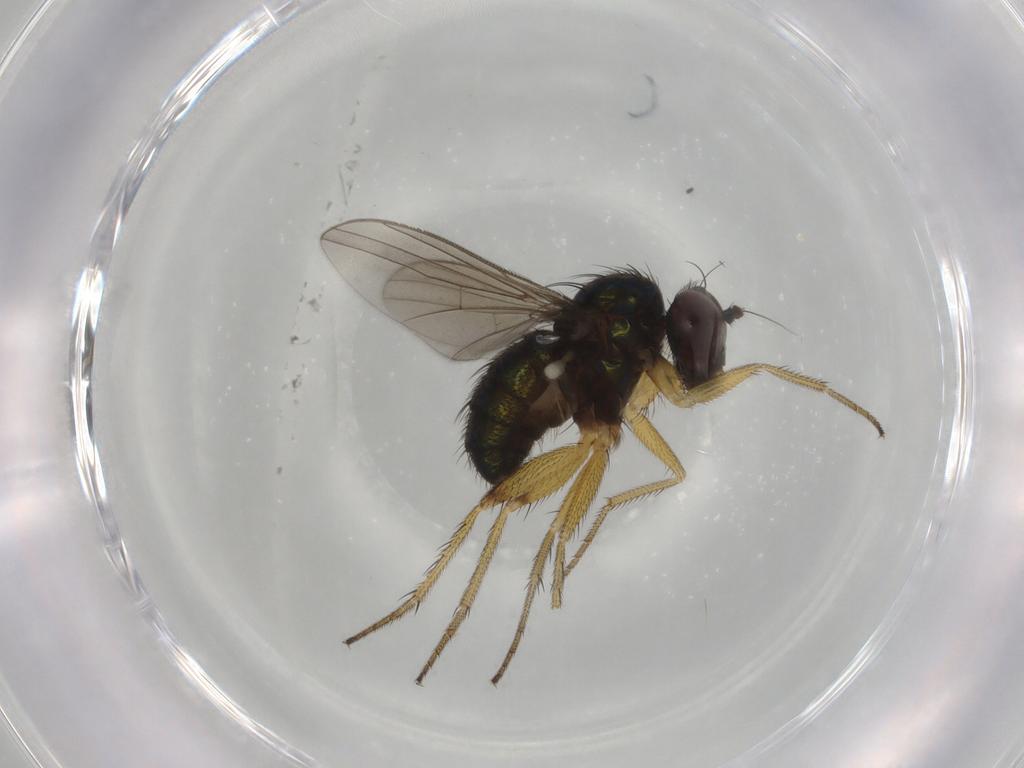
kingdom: Animalia
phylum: Arthropoda
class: Insecta
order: Diptera
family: Dolichopodidae
